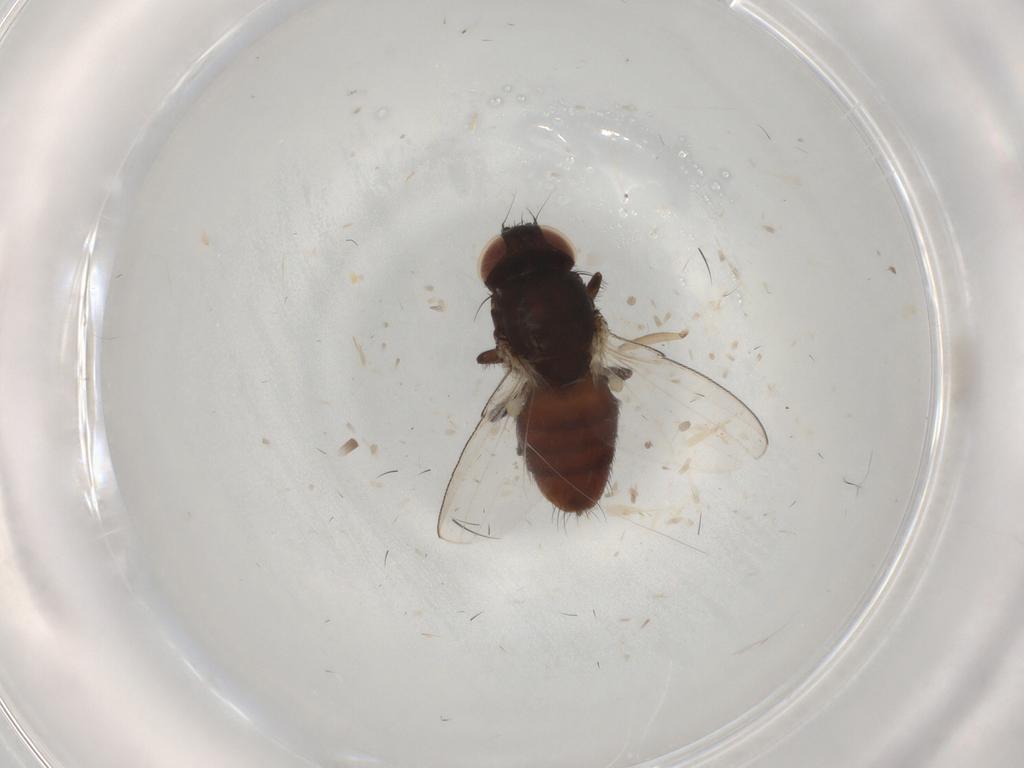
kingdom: Animalia
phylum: Arthropoda
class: Insecta
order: Diptera
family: Milichiidae
